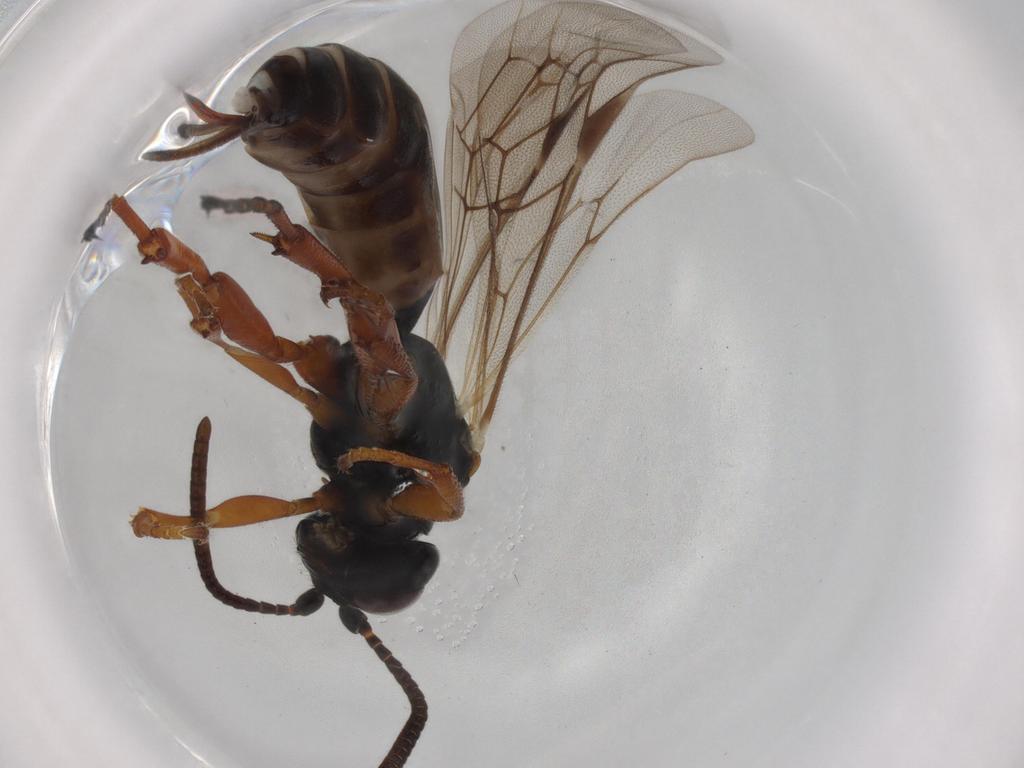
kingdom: Animalia
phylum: Arthropoda
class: Insecta
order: Hymenoptera
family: Ichneumonidae
